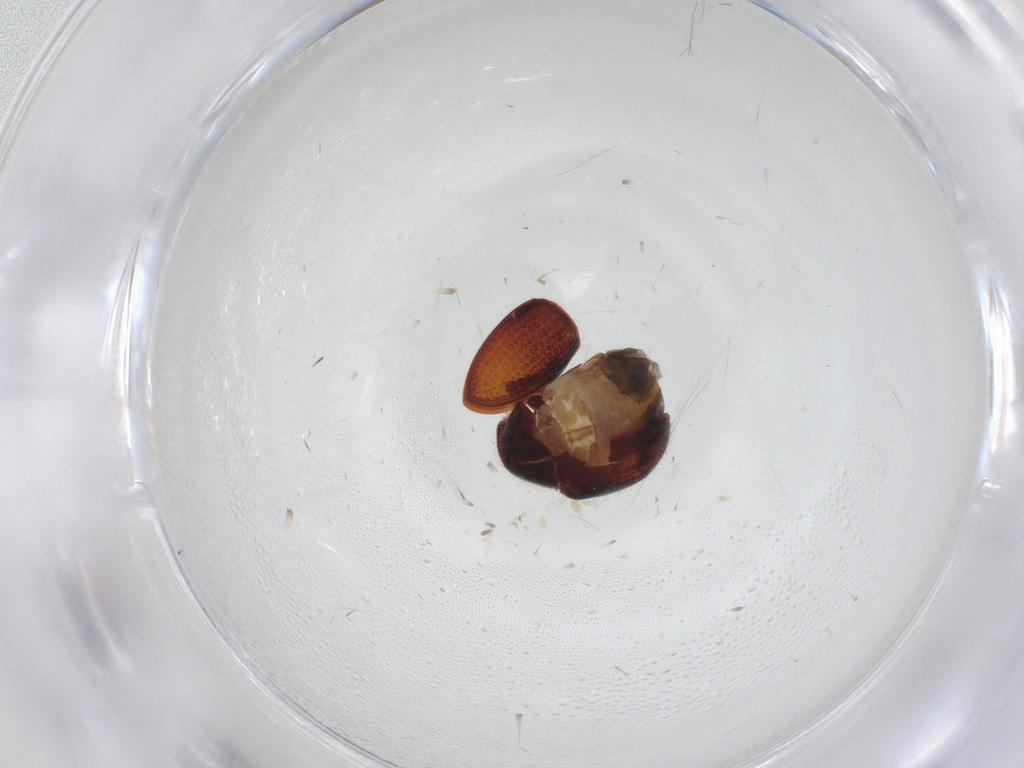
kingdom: Animalia
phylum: Arthropoda
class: Insecta
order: Coleoptera
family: Ptinidae
